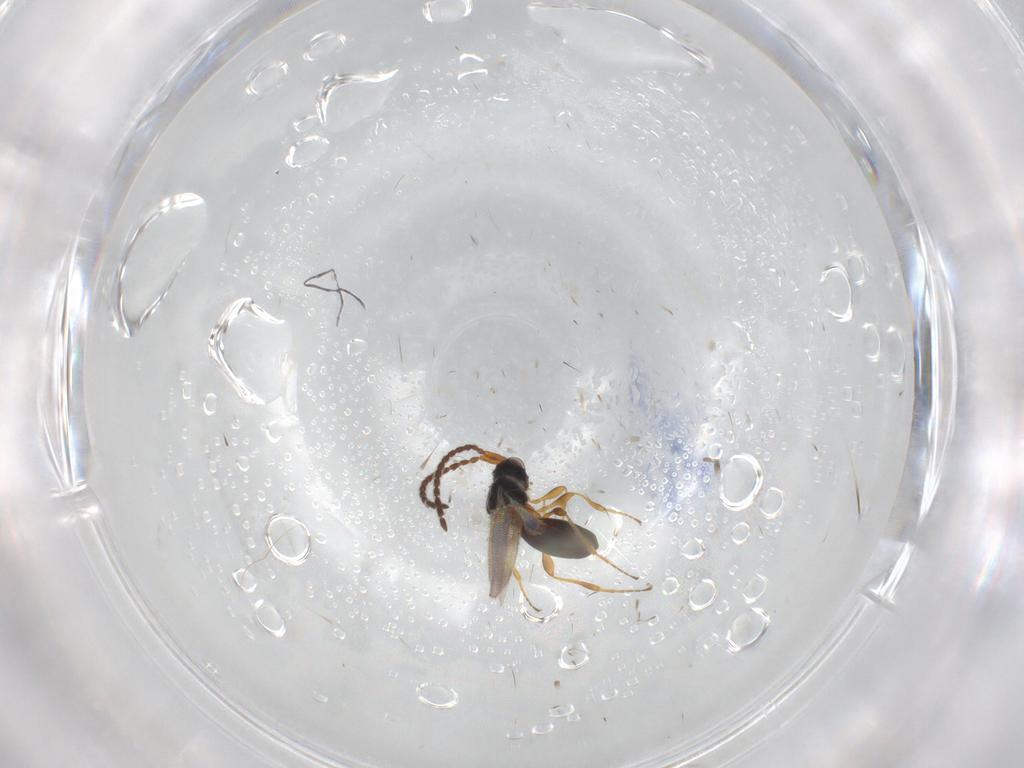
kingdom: Animalia
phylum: Arthropoda
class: Insecta
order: Hymenoptera
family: Diapriidae
